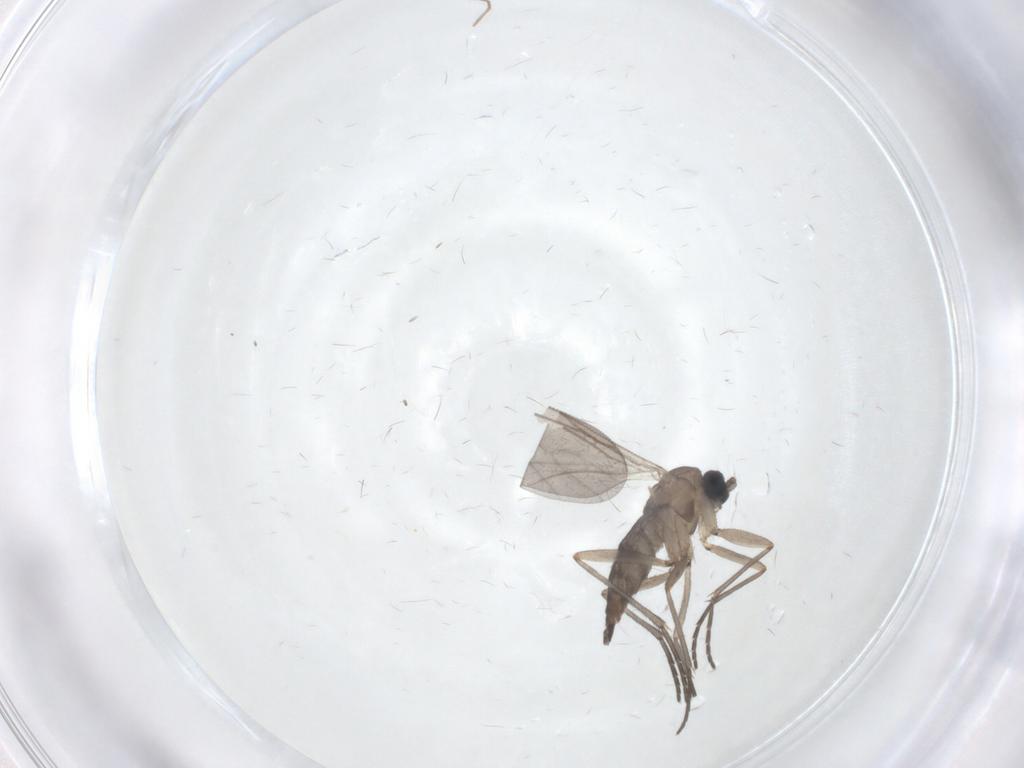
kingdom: Animalia
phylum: Arthropoda
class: Insecta
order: Diptera
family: Chironomidae
